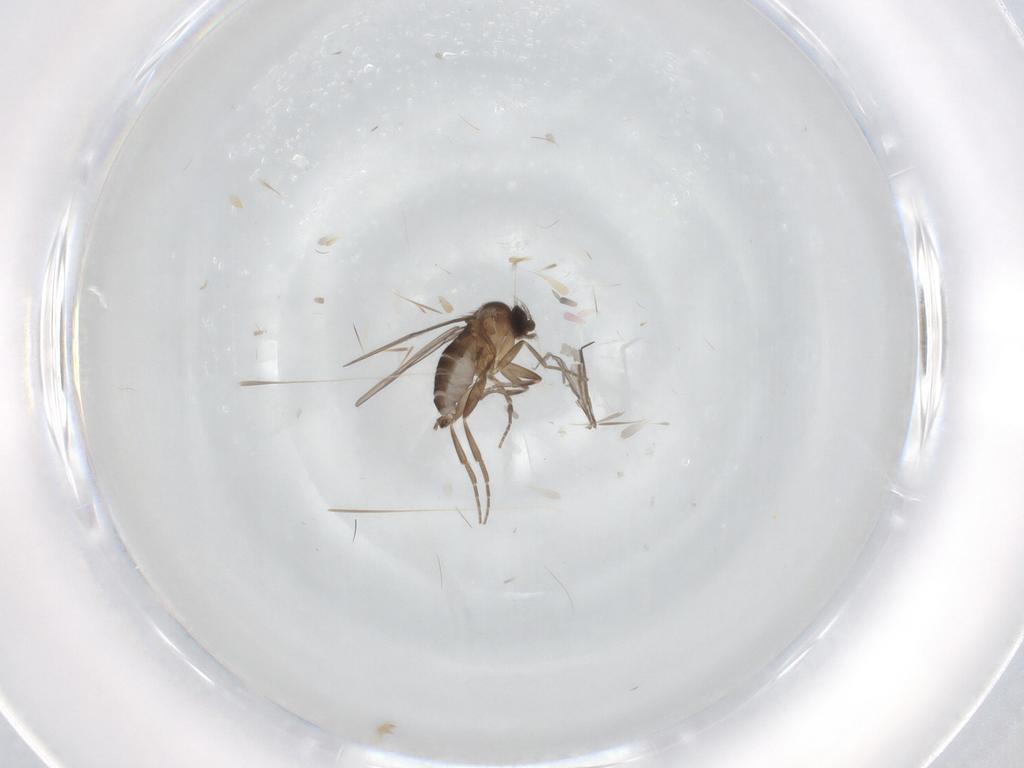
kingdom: Animalia
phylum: Arthropoda
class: Insecta
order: Diptera
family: Phoridae
